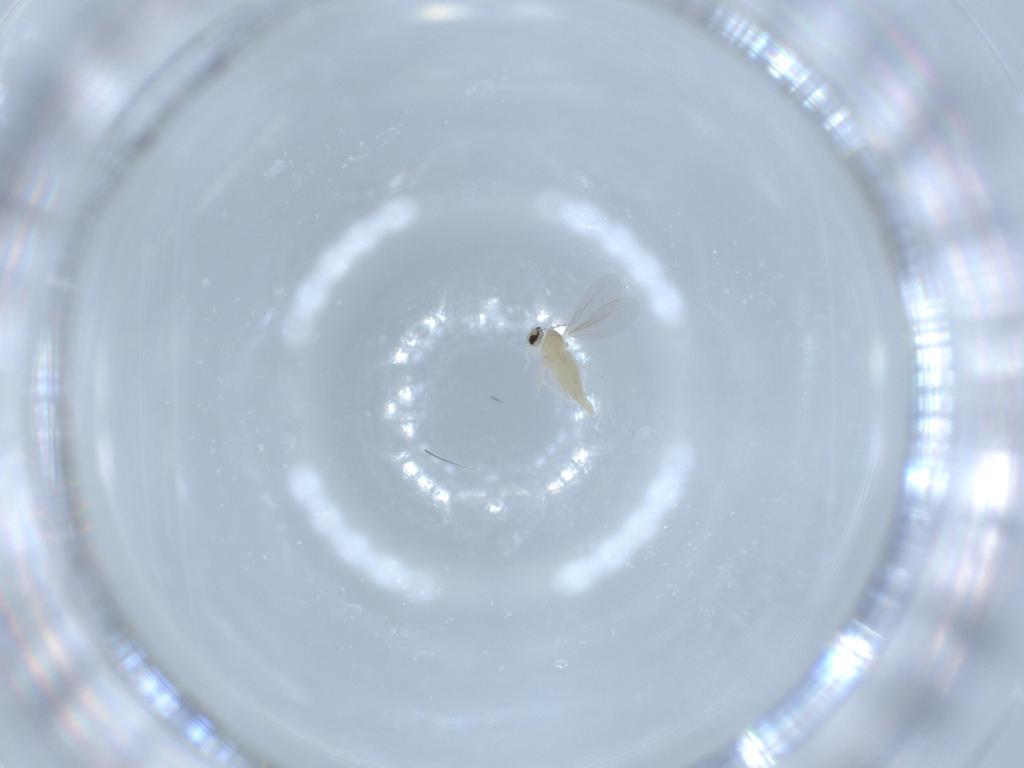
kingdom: Animalia
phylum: Arthropoda
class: Insecta
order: Diptera
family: Cecidomyiidae
